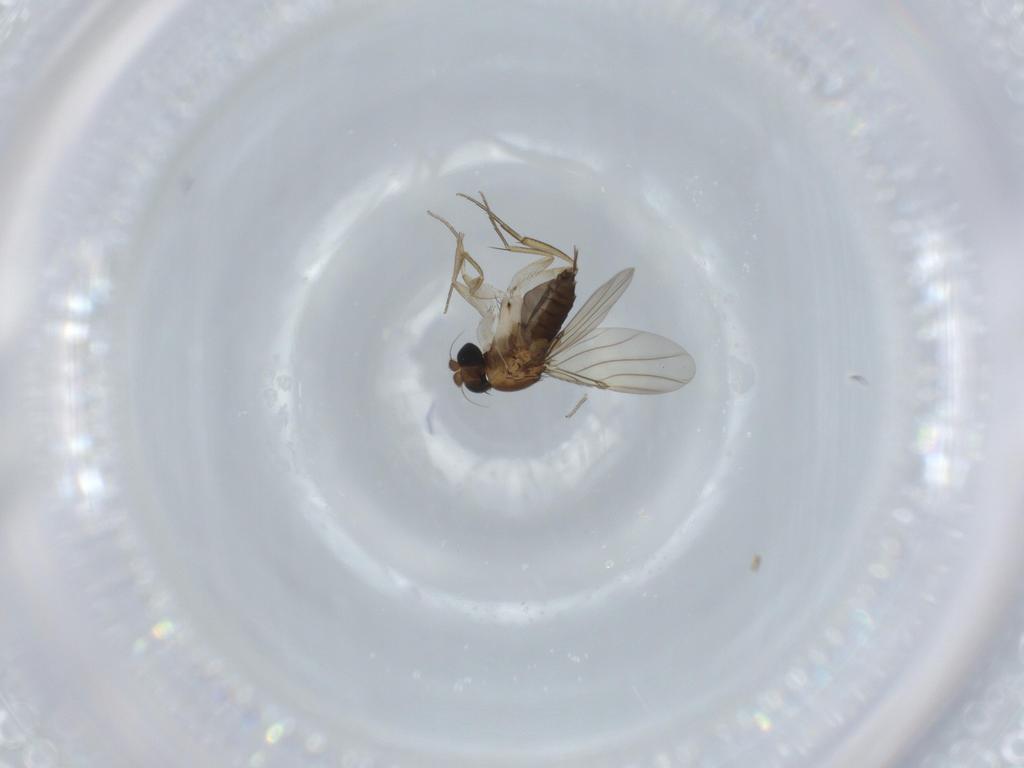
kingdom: Animalia
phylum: Arthropoda
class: Insecta
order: Diptera
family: Phoridae
